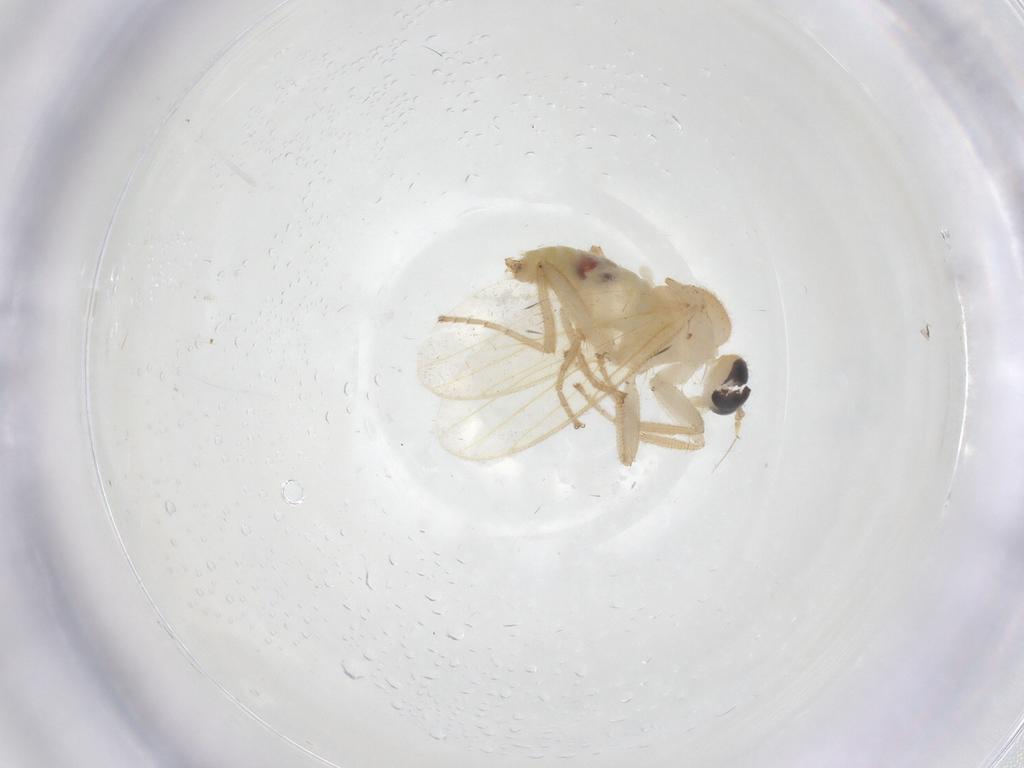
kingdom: Animalia
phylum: Arthropoda
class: Insecta
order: Diptera
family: Hybotidae
